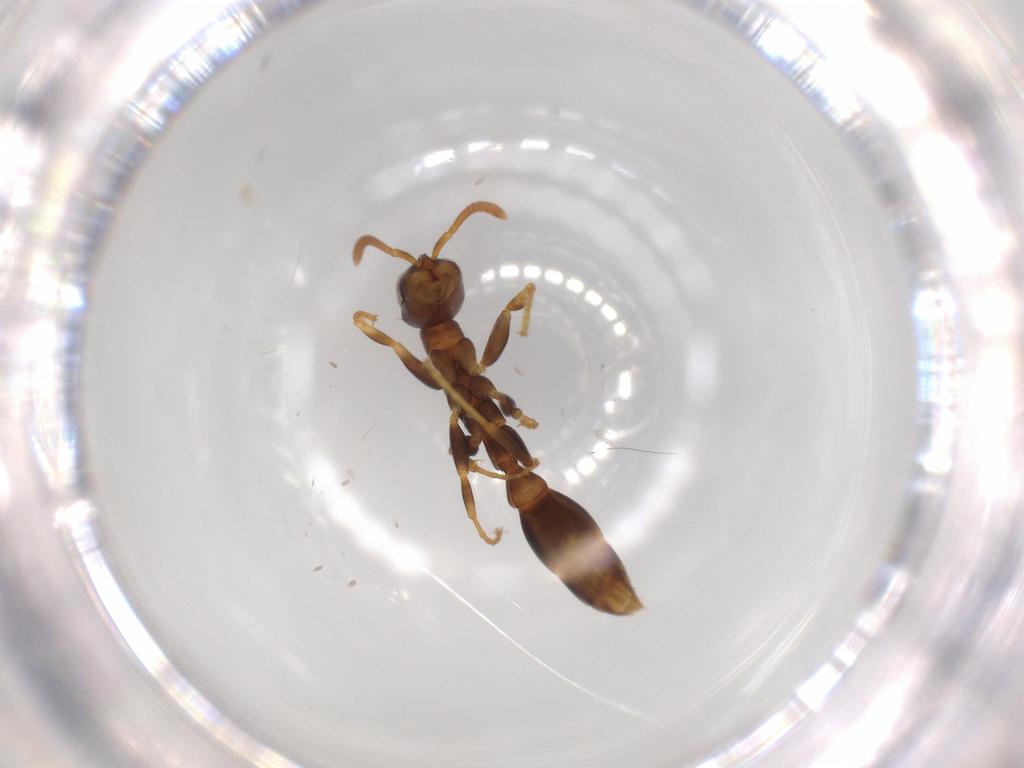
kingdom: Animalia
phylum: Arthropoda
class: Insecta
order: Hymenoptera
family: Formicidae
